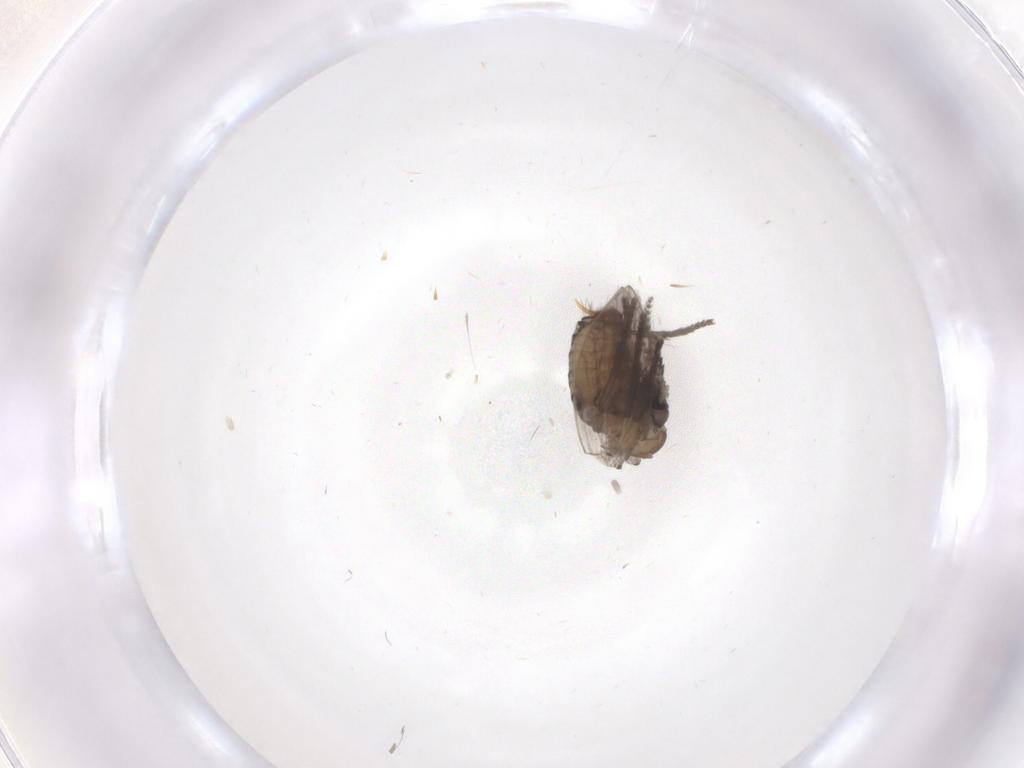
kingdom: Animalia
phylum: Arthropoda
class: Insecta
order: Diptera
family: Psychodidae
